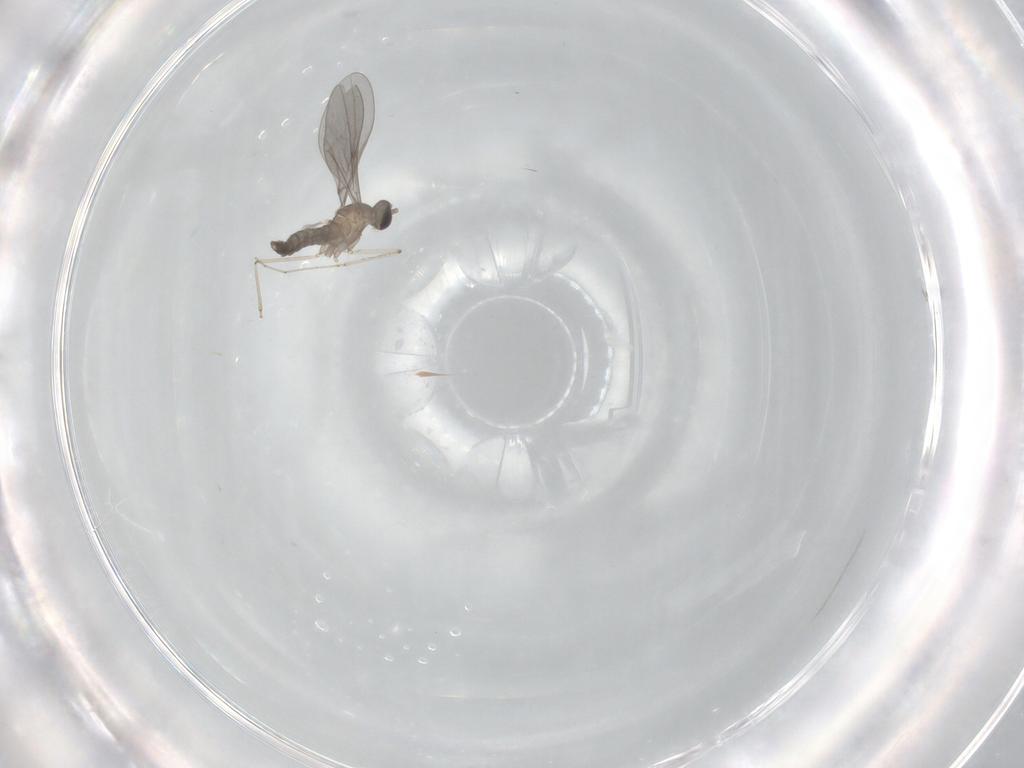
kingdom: Animalia
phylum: Arthropoda
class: Insecta
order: Diptera
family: Cecidomyiidae
